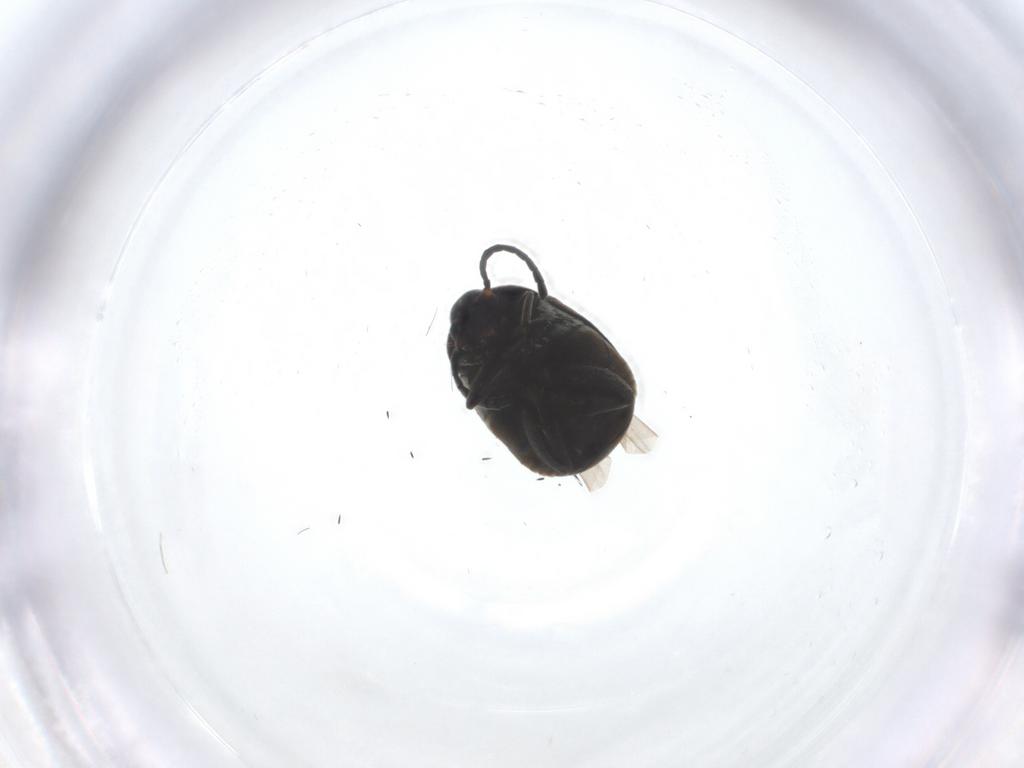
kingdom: Animalia
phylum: Arthropoda
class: Insecta
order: Coleoptera
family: Chrysomelidae
